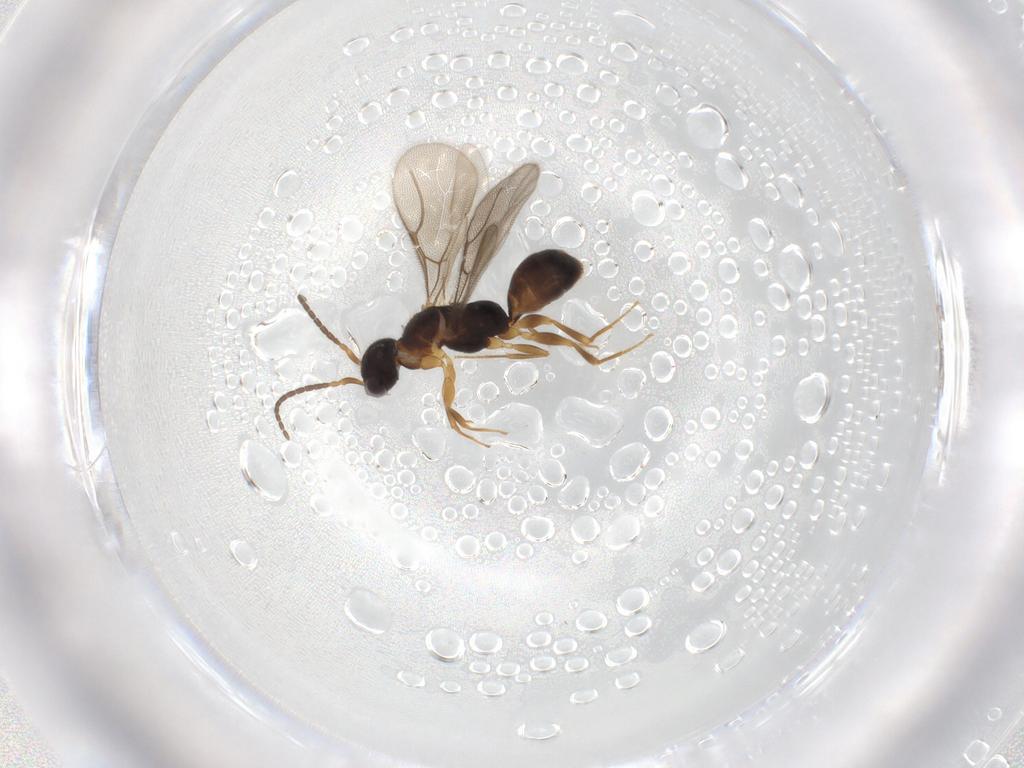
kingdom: Animalia
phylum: Arthropoda
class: Insecta
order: Hymenoptera
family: Bethylidae
